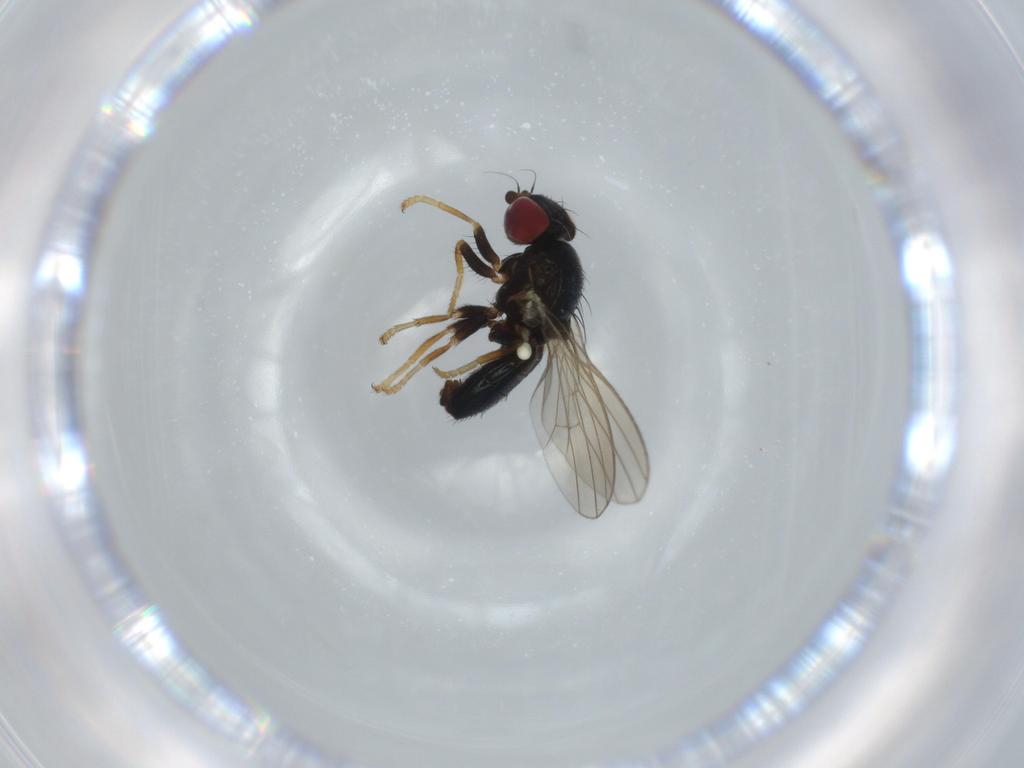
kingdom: Animalia
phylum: Arthropoda
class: Insecta
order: Diptera
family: Chamaemyiidae
